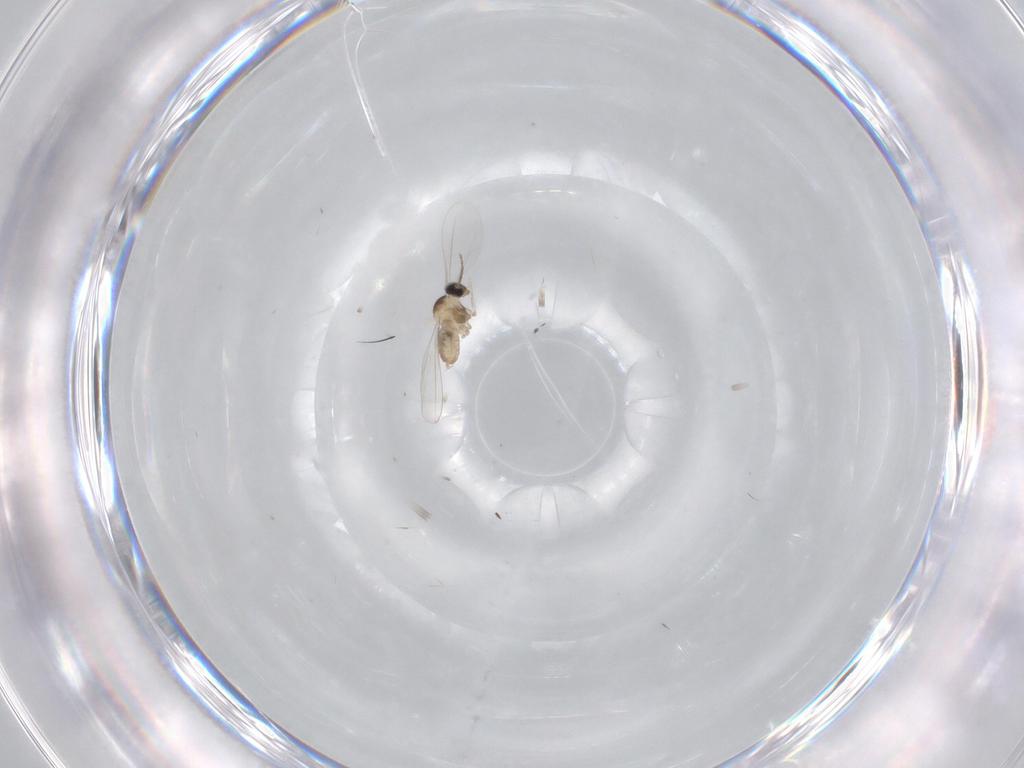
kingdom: Animalia
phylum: Arthropoda
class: Insecta
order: Diptera
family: Cecidomyiidae
